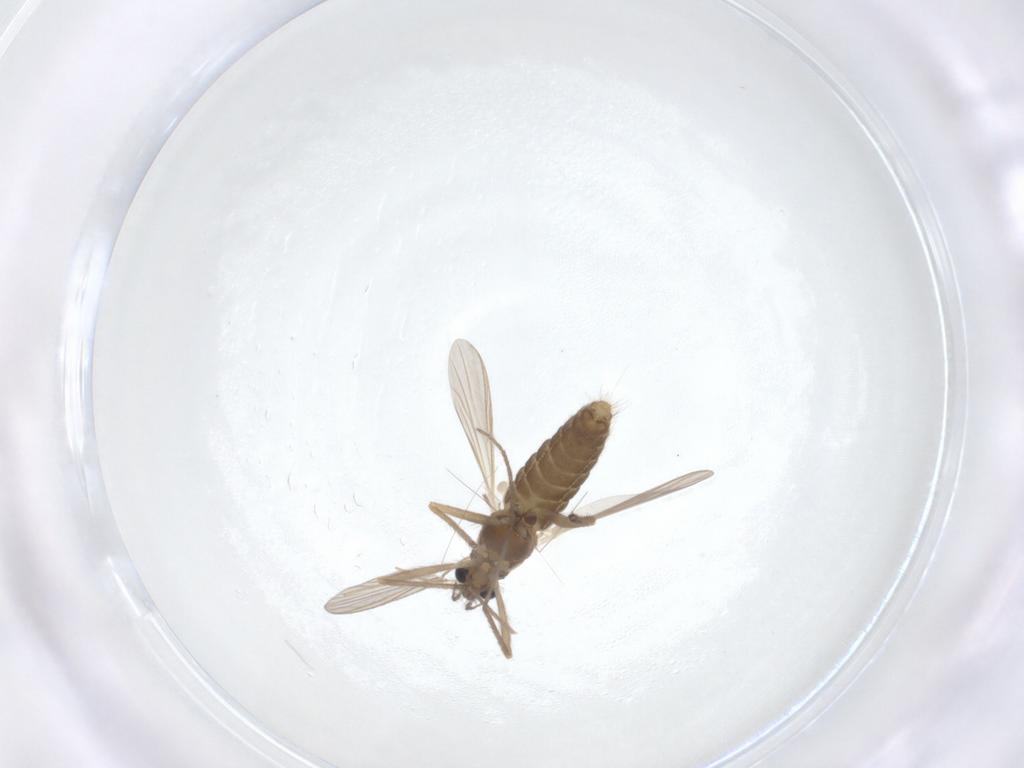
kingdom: Animalia
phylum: Arthropoda
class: Insecta
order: Diptera
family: Chironomidae
